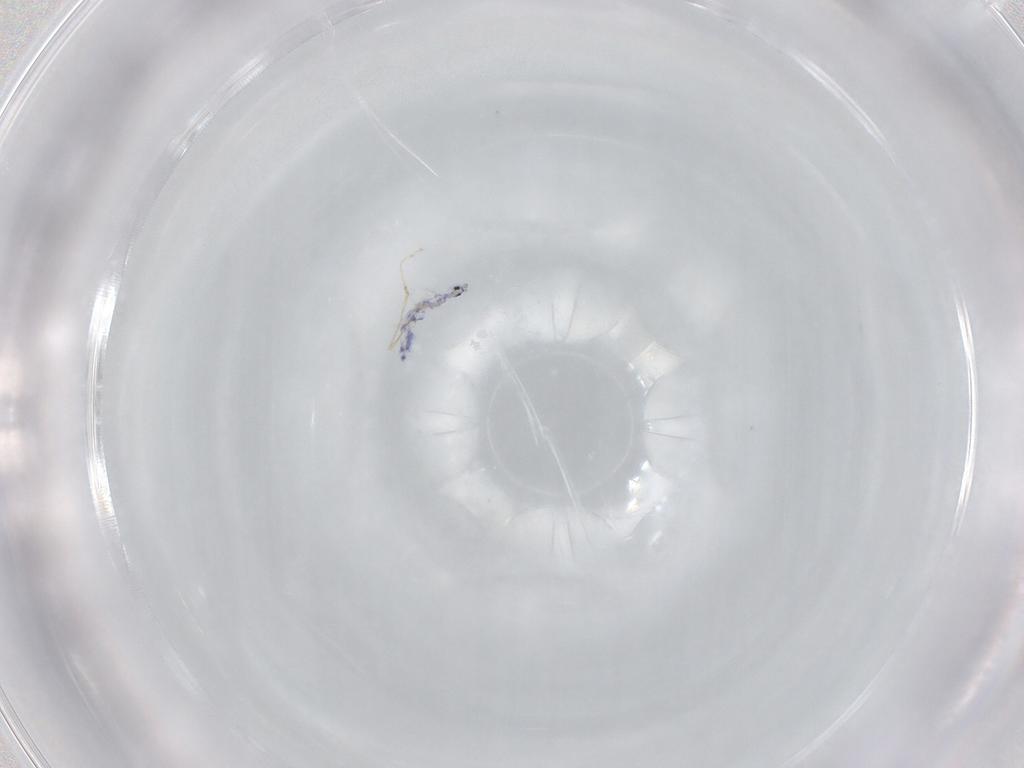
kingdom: Animalia
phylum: Arthropoda
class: Collembola
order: Entomobryomorpha
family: Entomobryidae
